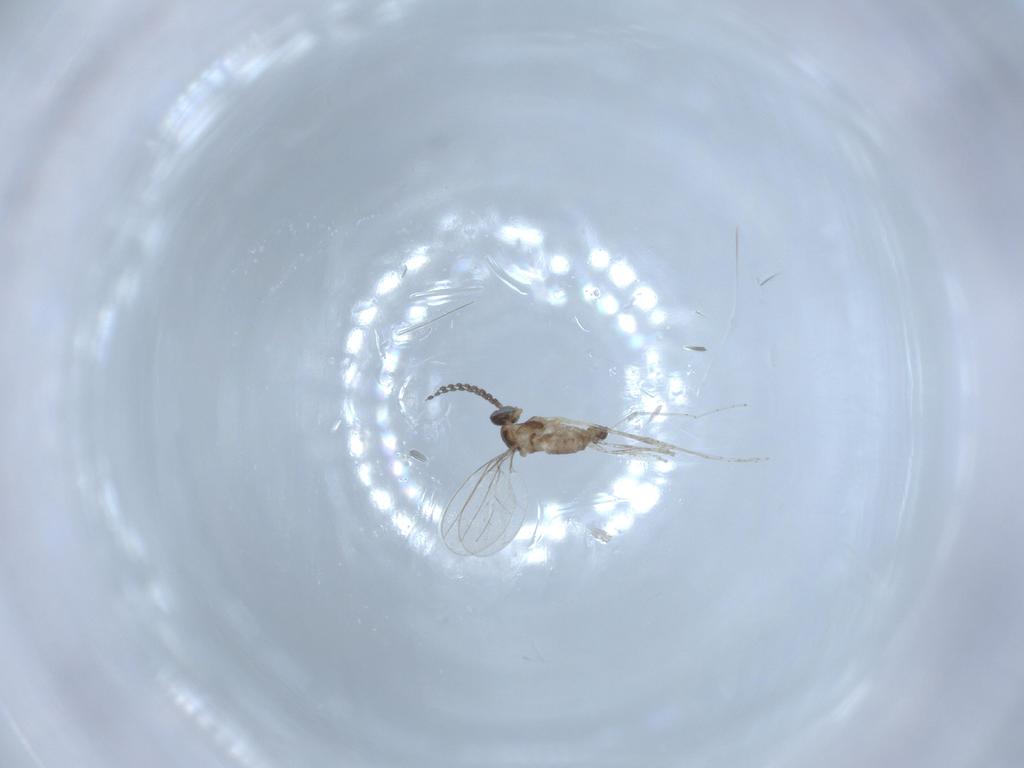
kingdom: Animalia
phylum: Arthropoda
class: Insecta
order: Diptera
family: Cecidomyiidae
